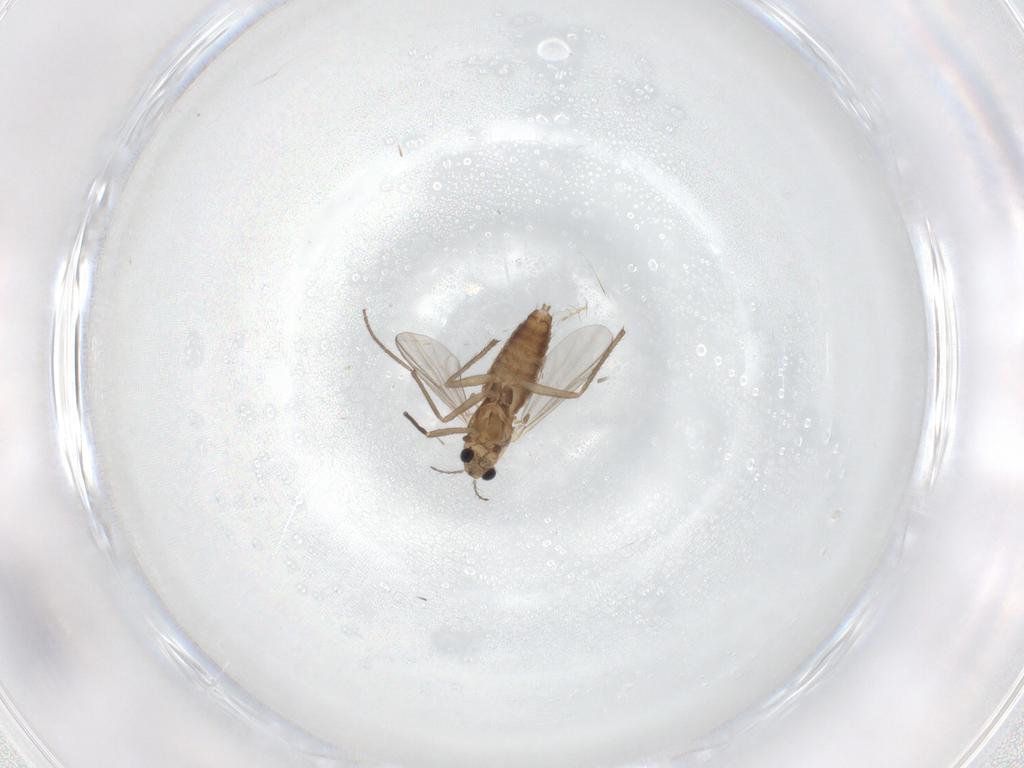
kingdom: Animalia
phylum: Arthropoda
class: Insecta
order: Diptera
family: Chironomidae
